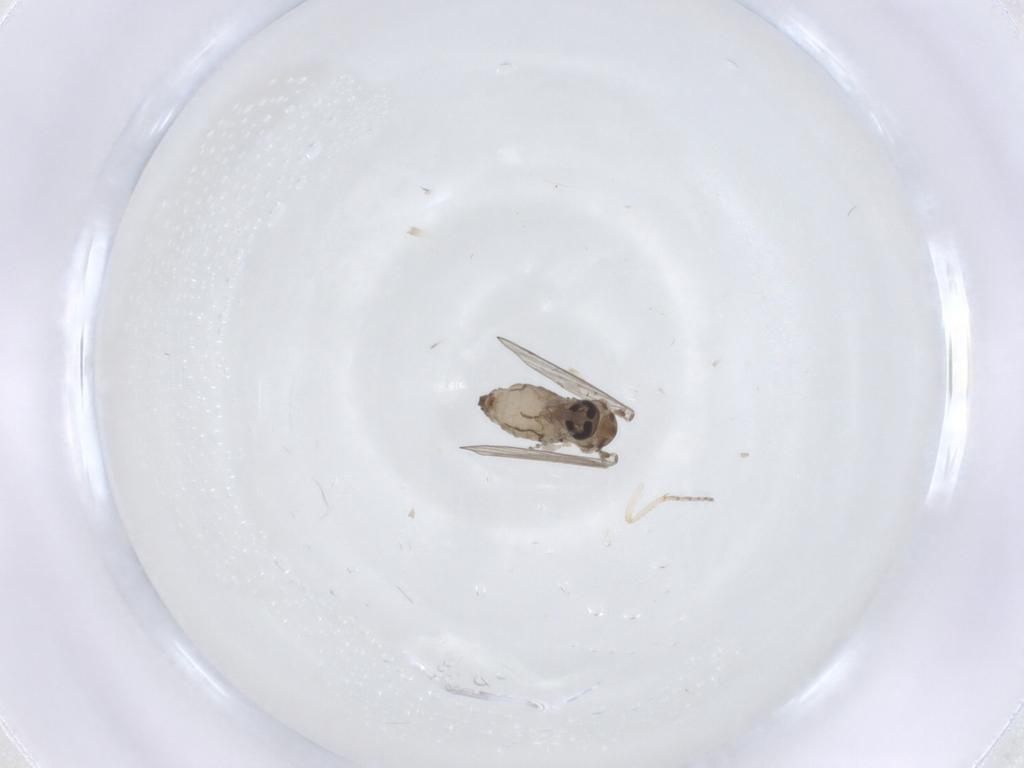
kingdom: Animalia
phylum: Arthropoda
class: Insecta
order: Diptera
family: Psychodidae
